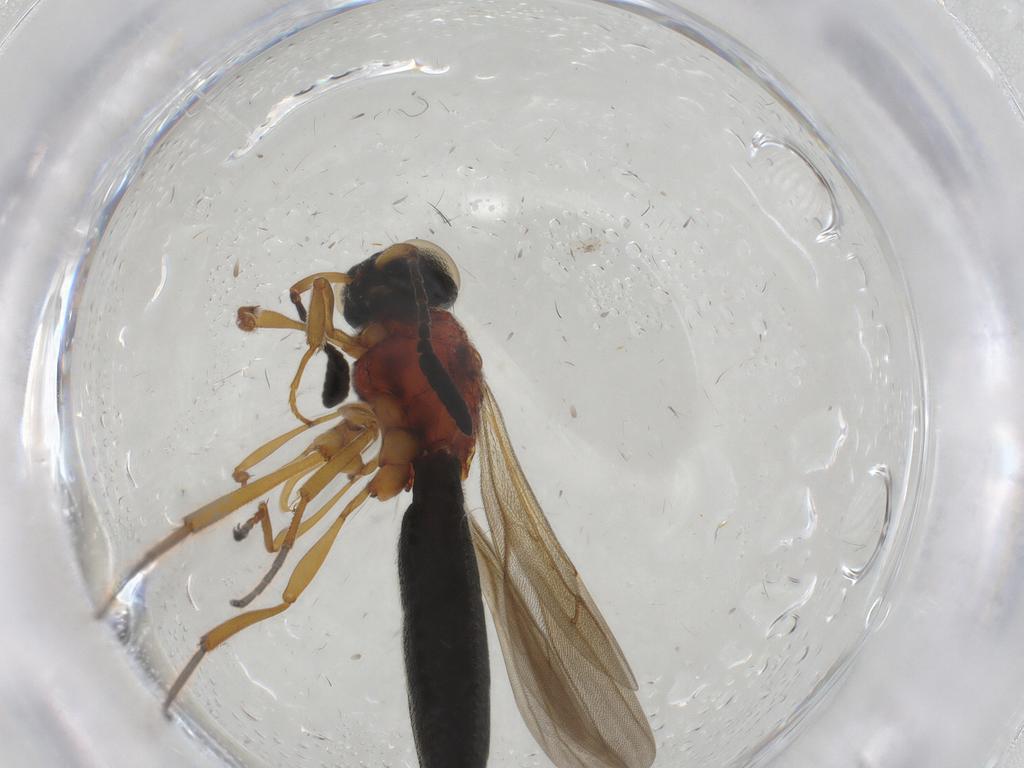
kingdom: Animalia
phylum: Arthropoda
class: Insecta
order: Hymenoptera
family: Scelionidae
